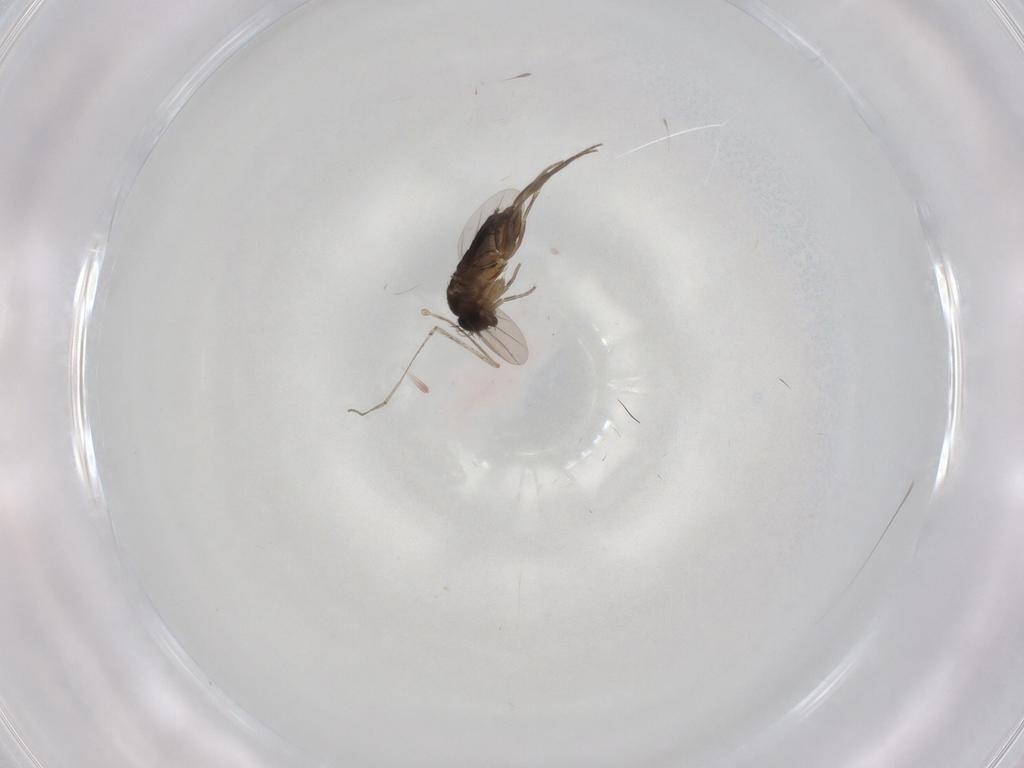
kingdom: Animalia
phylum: Arthropoda
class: Insecta
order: Diptera
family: Phoridae
